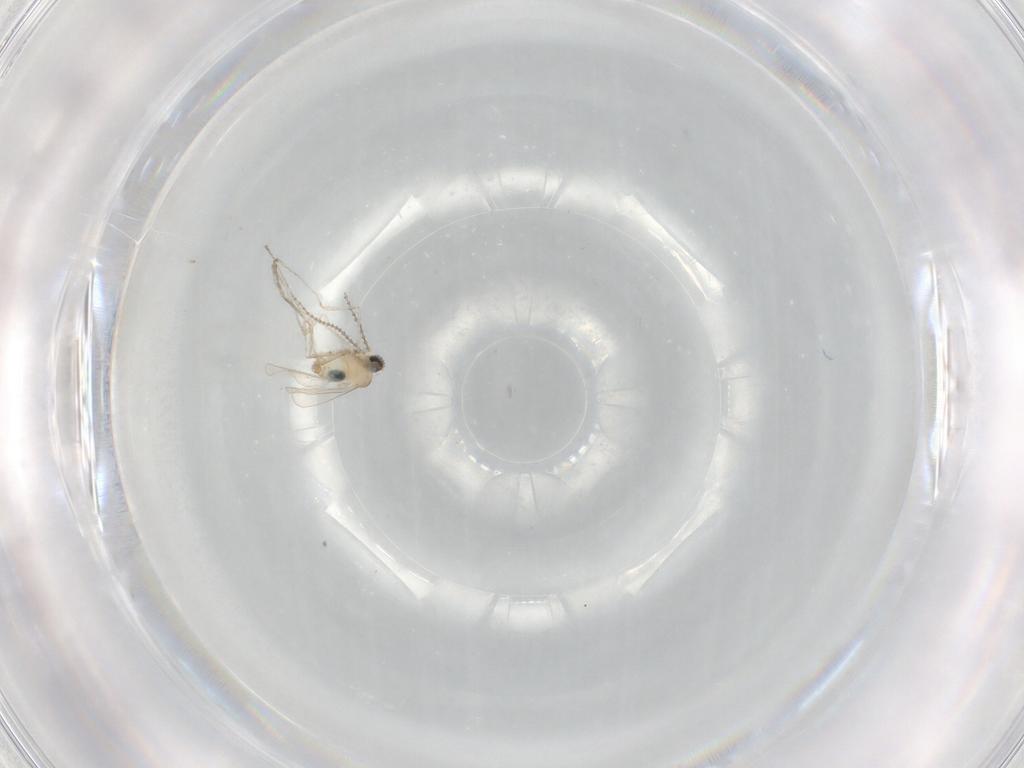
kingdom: Animalia
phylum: Arthropoda
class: Insecta
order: Diptera
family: Cecidomyiidae
